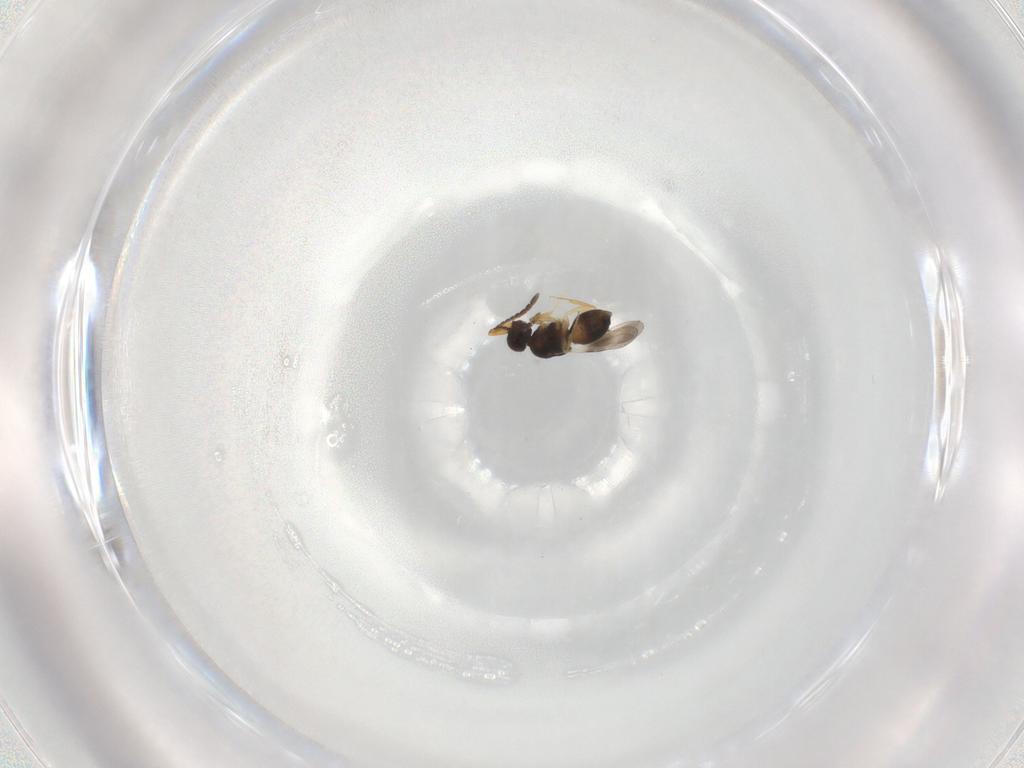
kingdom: Animalia
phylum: Arthropoda
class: Insecta
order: Hymenoptera
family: Ceraphronidae
